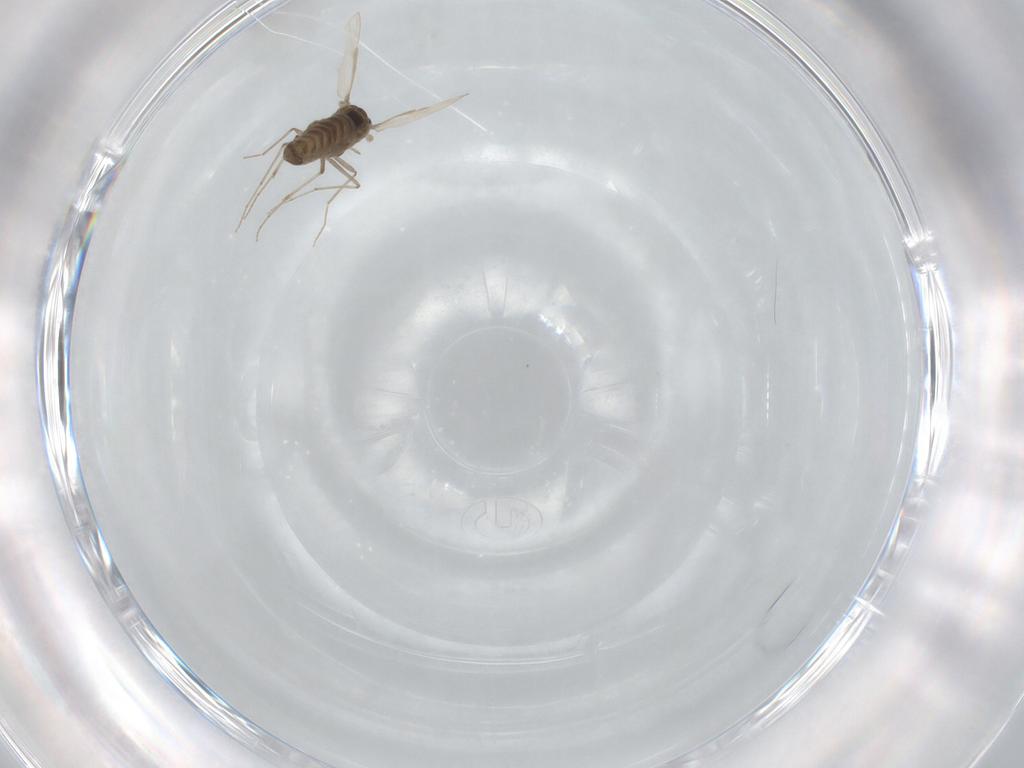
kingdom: Animalia
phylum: Arthropoda
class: Insecta
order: Diptera
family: Chironomidae
